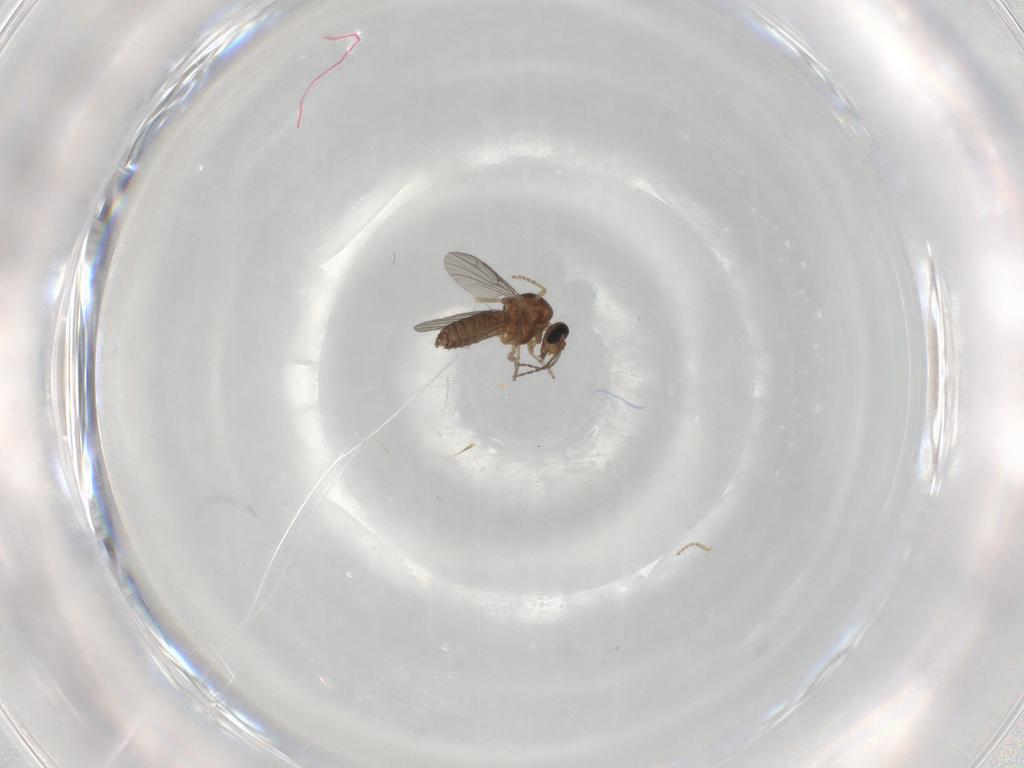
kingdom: Animalia
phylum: Arthropoda
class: Insecta
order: Diptera
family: Ceratopogonidae
